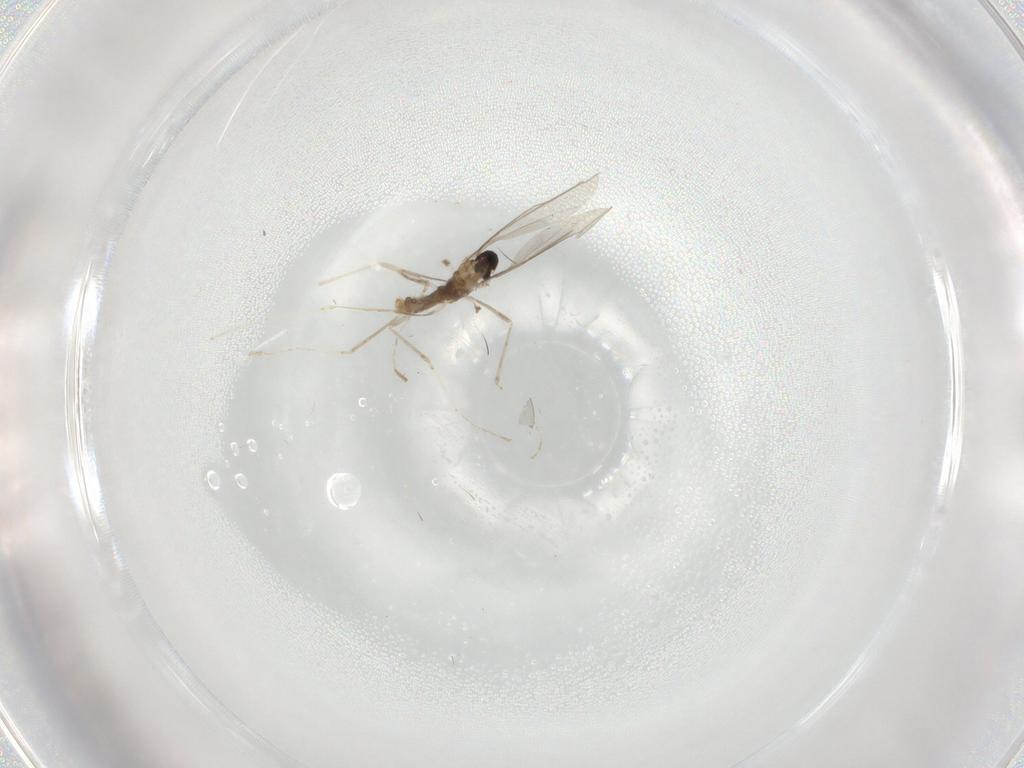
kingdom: Animalia
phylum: Arthropoda
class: Insecta
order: Diptera
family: Cecidomyiidae
